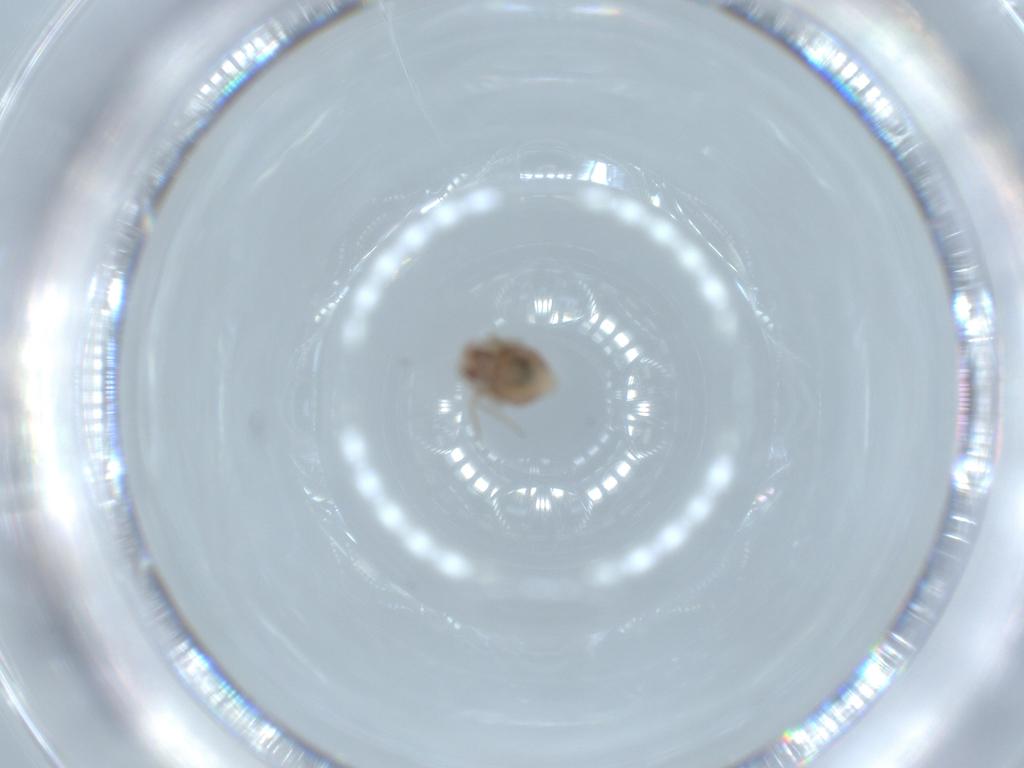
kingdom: Animalia
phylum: Arthropoda
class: Insecta
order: Psocodea
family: Ectopsocidae
